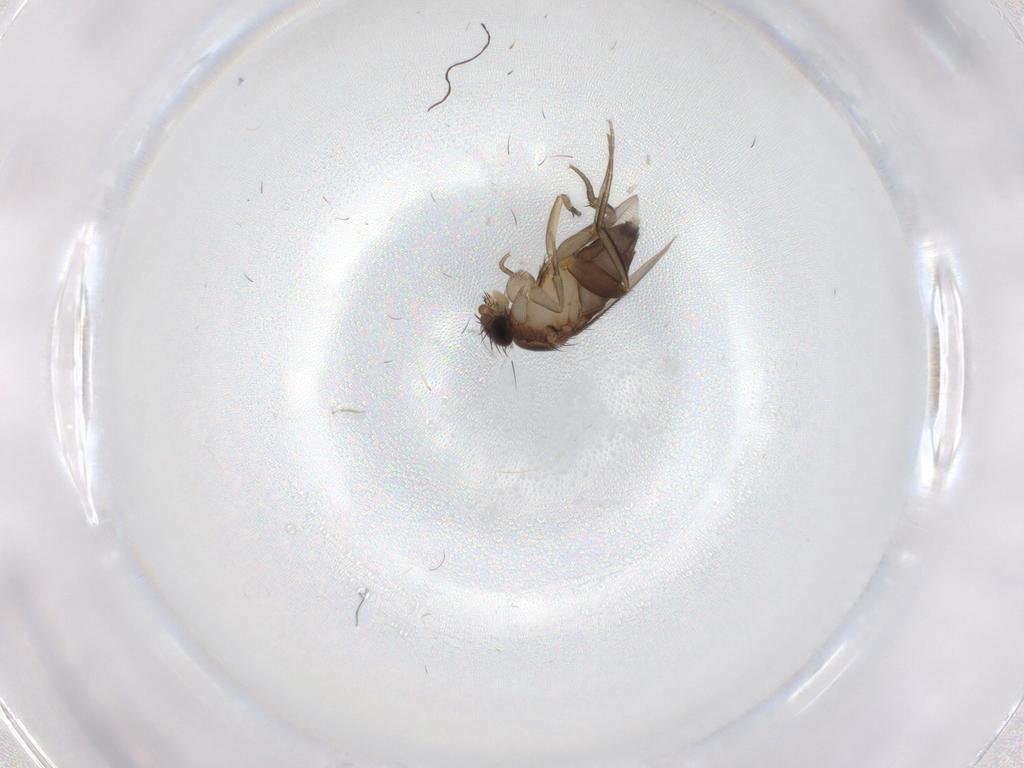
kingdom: Animalia
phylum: Arthropoda
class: Insecta
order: Diptera
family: Phoridae
